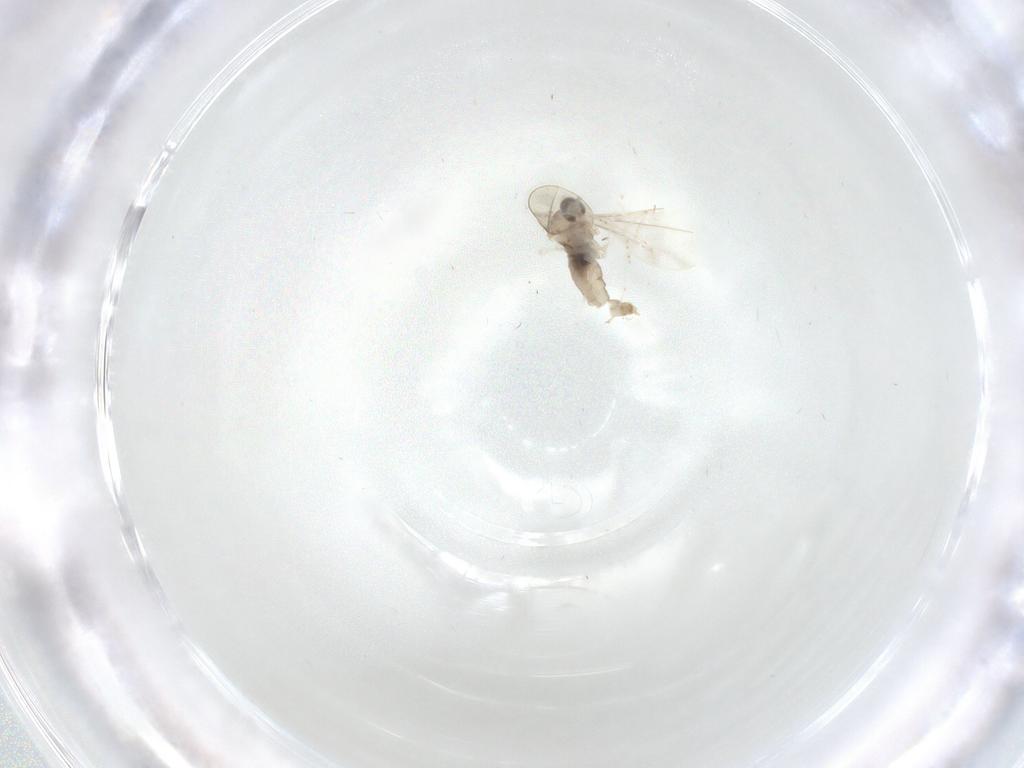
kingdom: Animalia
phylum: Arthropoda
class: Insecta
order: Diptera
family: Cecidomyiidae
